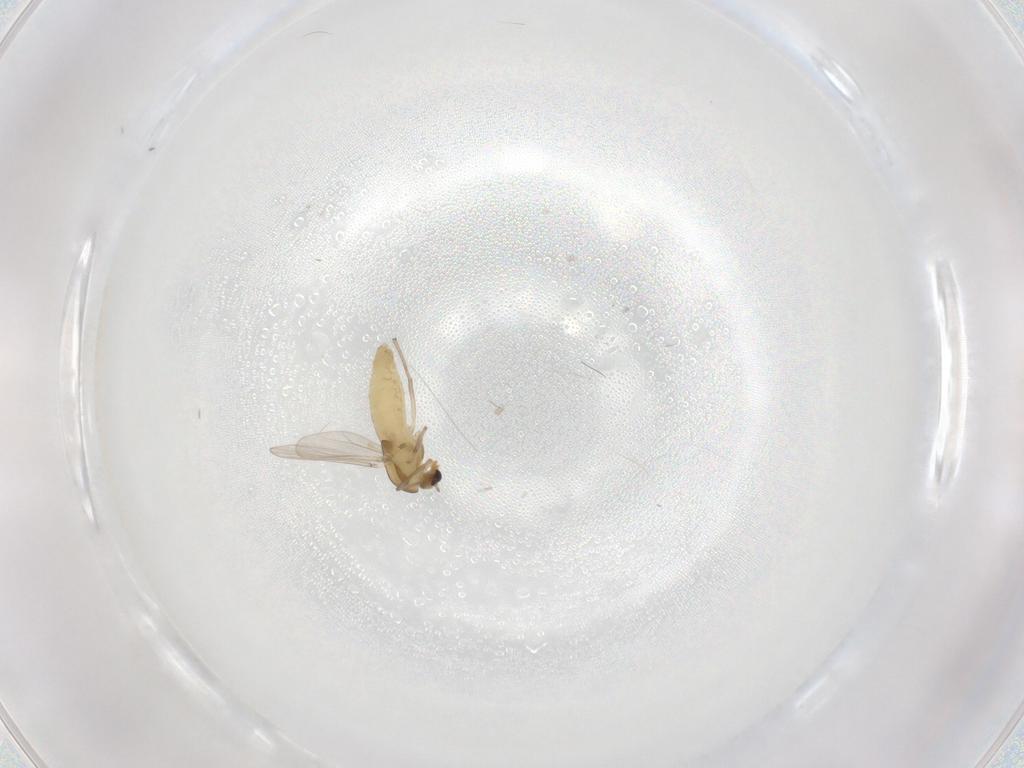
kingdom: Animalia
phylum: Arthropoda
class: Insecta
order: Diptera
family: Chironomidae
